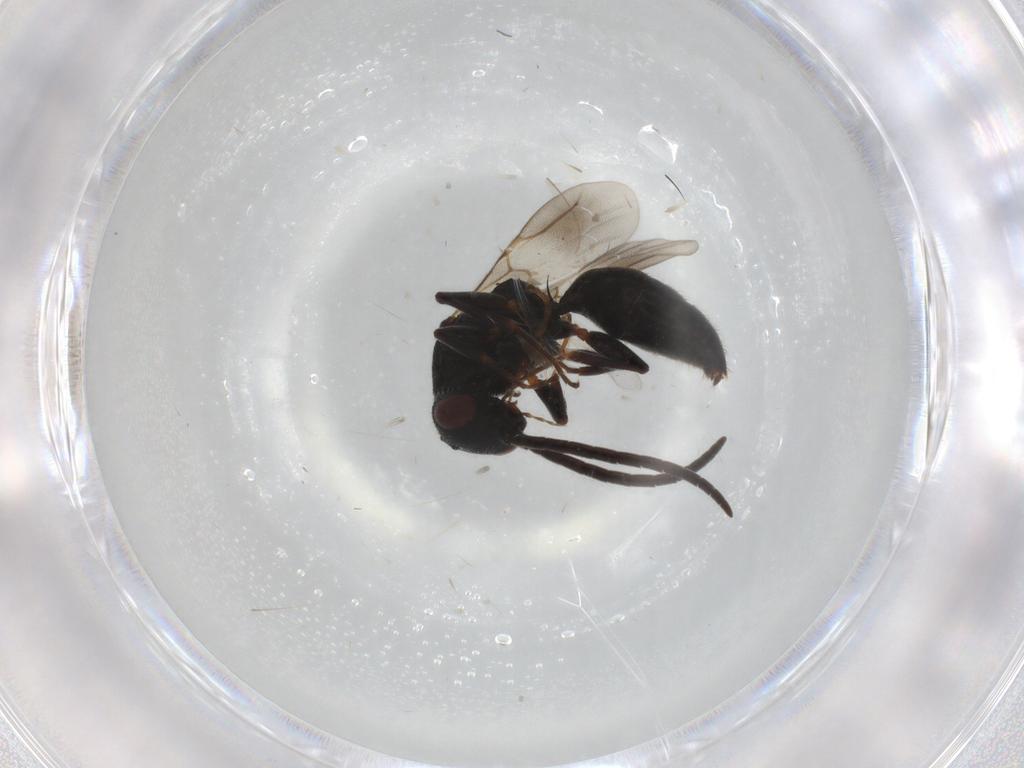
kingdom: Animalia
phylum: Arthropoda
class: Insecta
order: Hymenoptera
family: Bethylidae
